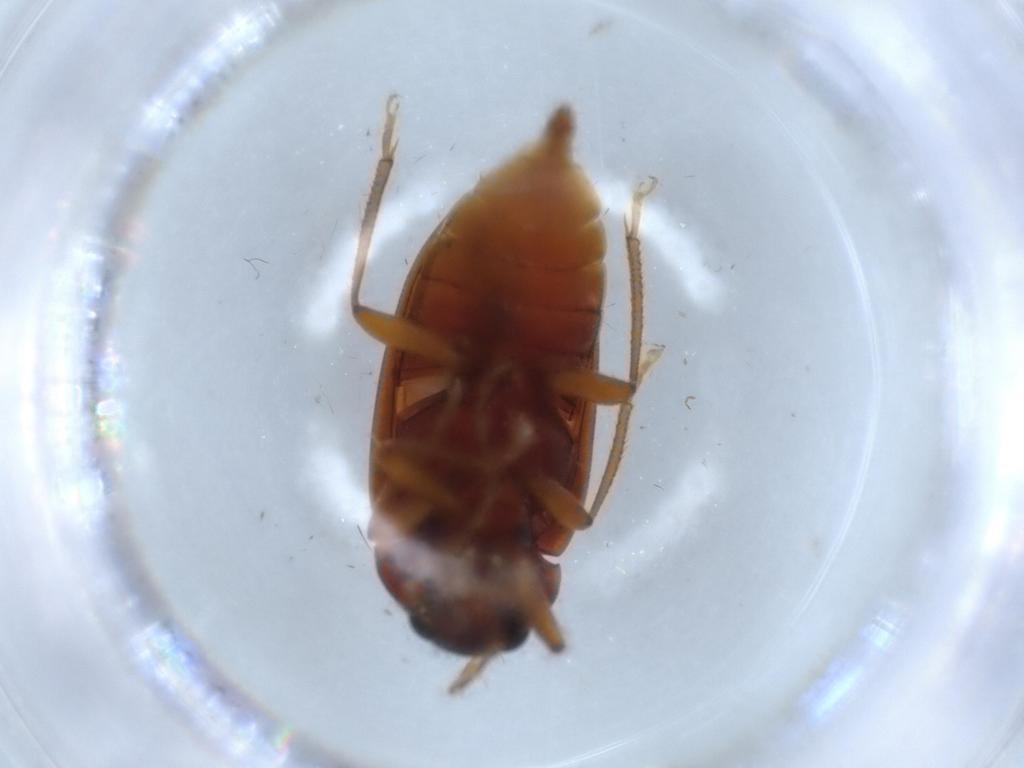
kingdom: Animalia
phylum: Arthropoda
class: Insecta
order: Coleoptera
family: Ptilodactylidae
